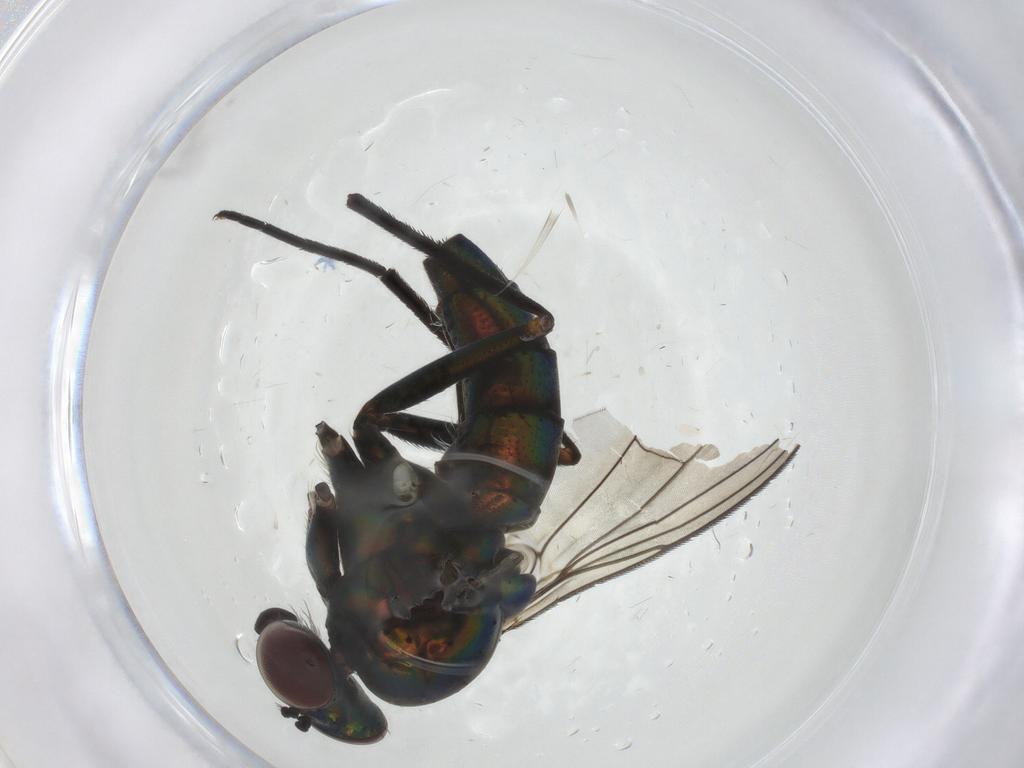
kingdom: Animalia
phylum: Arthropoda
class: Insecta
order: Diptera
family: Dolichopodidae
